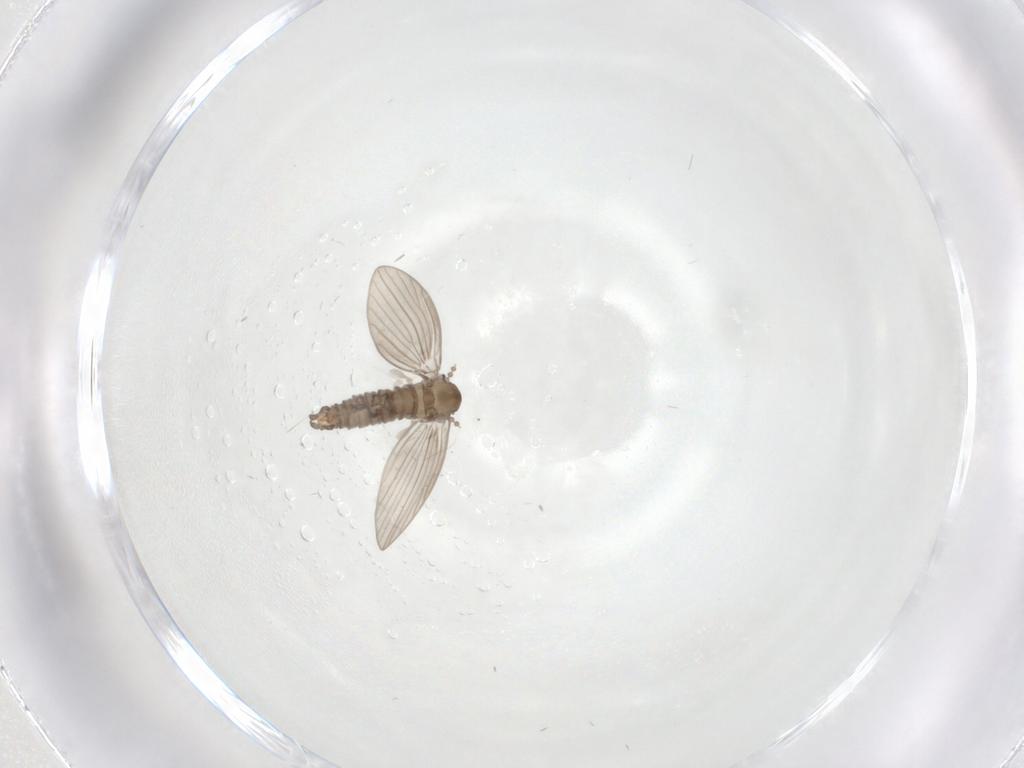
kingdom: Animalia
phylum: Arthropoda
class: Insecta
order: Diptera
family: Psychodidae
